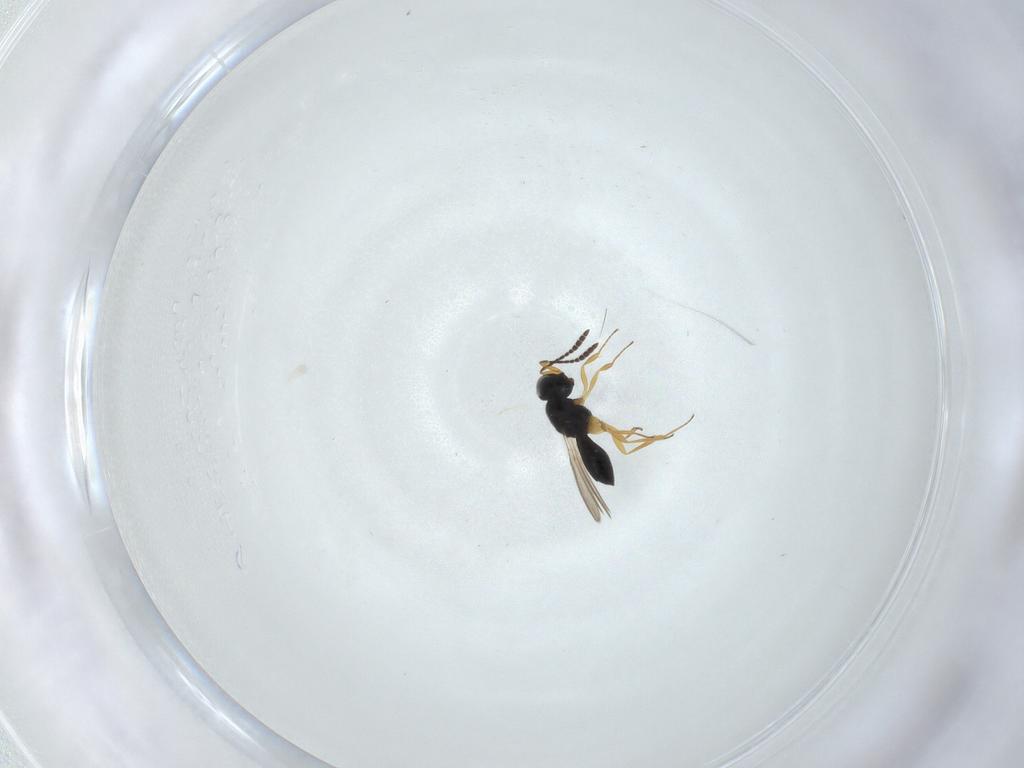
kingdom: Animalia
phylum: Arthropoda
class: Insecta
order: Hymenoptera
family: Scelionidae
